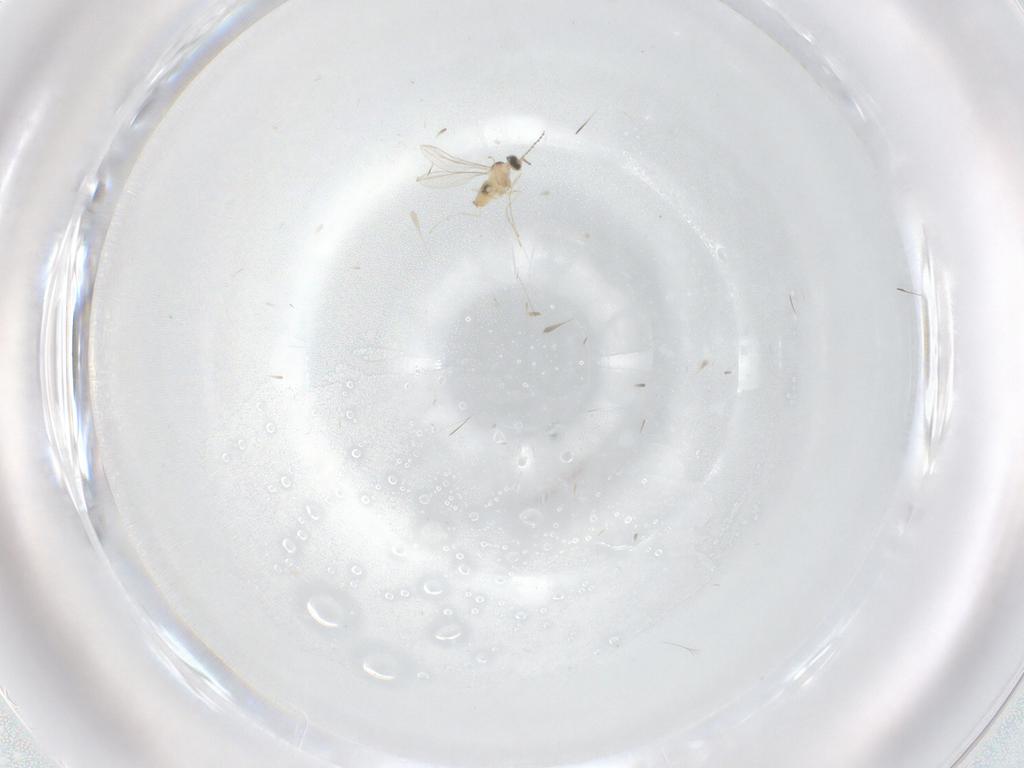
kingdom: Animalia
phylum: Arthropoda
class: Insecta
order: Diptera
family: Cecidomyiidae
